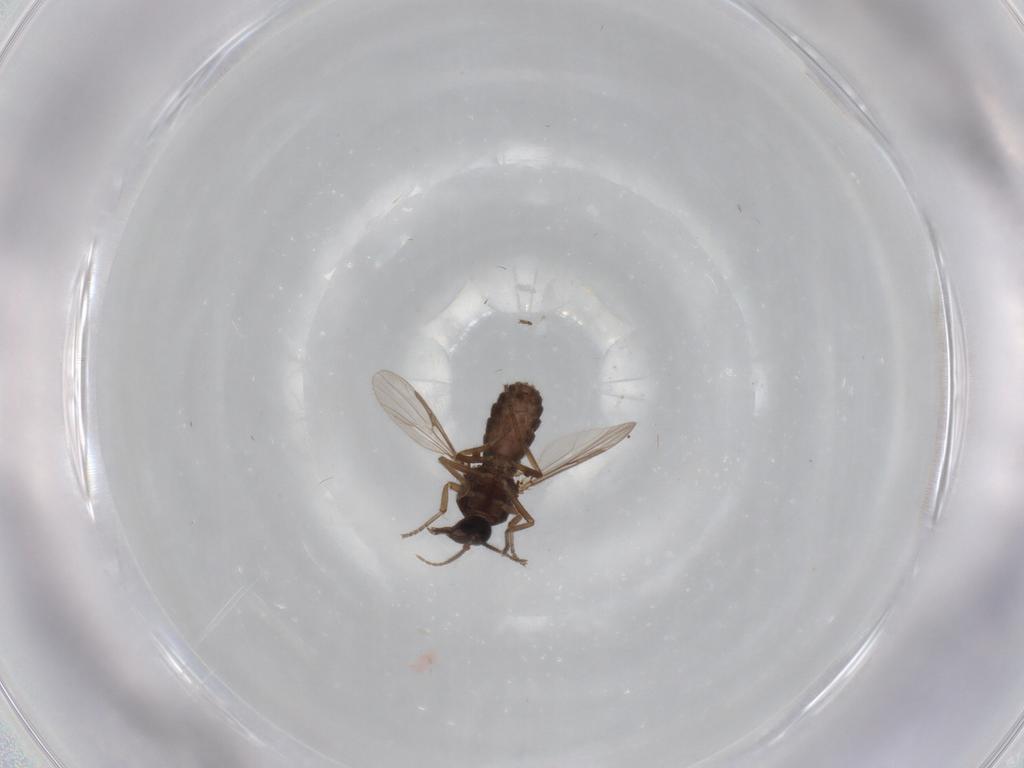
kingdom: Animalia
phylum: Arthropoda
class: Insecta
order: Diptera
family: Ceratopogonidae
